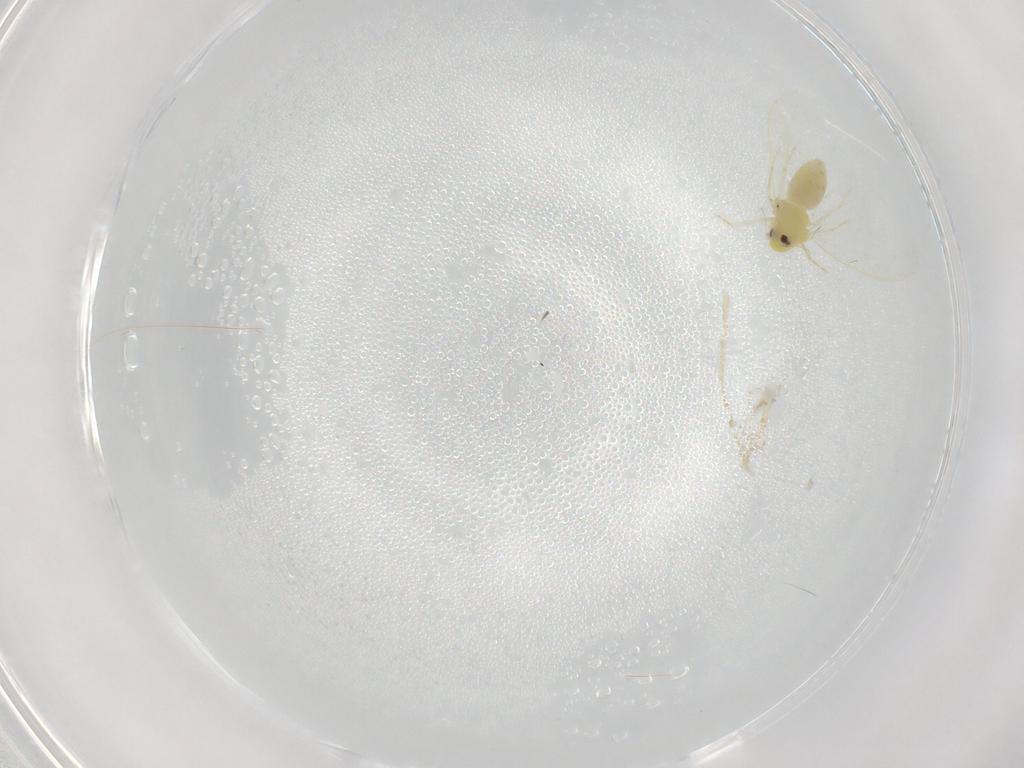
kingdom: Animalia
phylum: Arthropoda
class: Insecta
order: Hemiptera
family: Aleyrodidae
